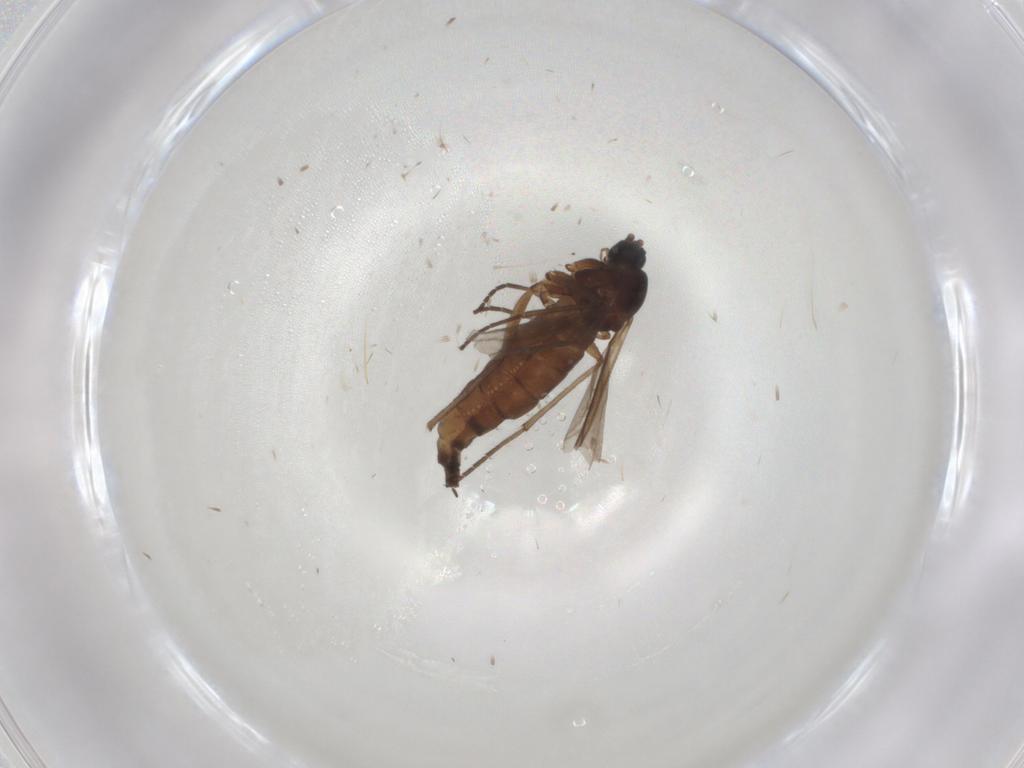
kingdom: Animalia
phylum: Arthropoda
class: Insecta
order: Diptera
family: Sciaridae
